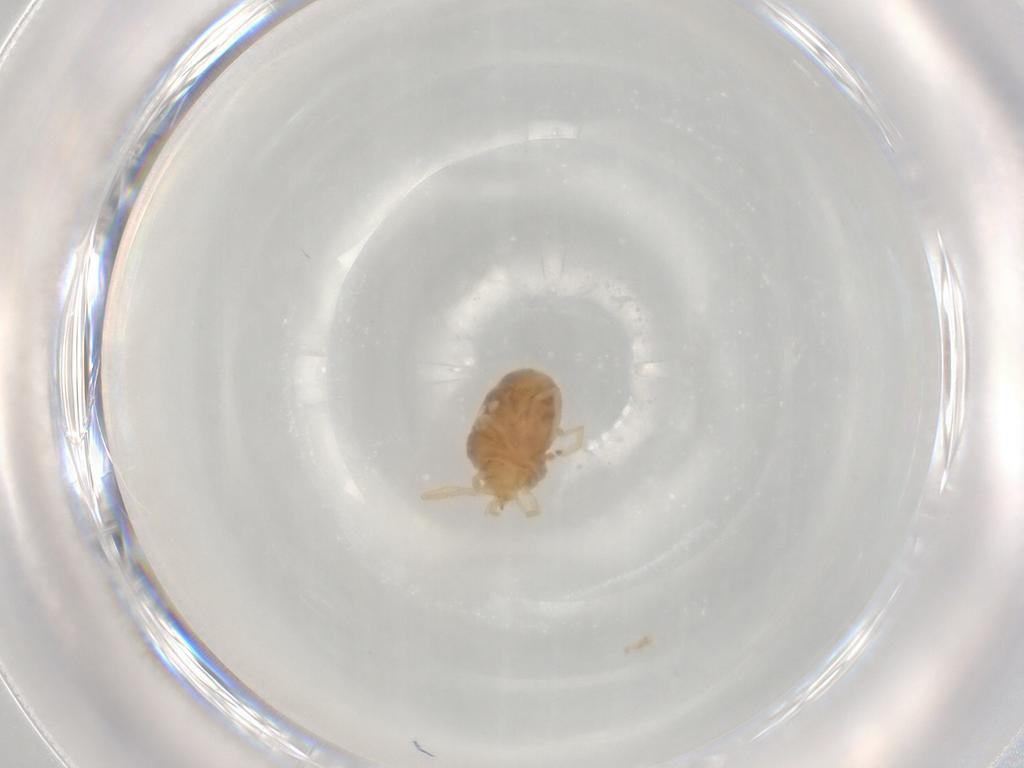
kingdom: Animalia
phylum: Arthropoda
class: Arachnida
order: Trombidiformes
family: Erythraeidae
